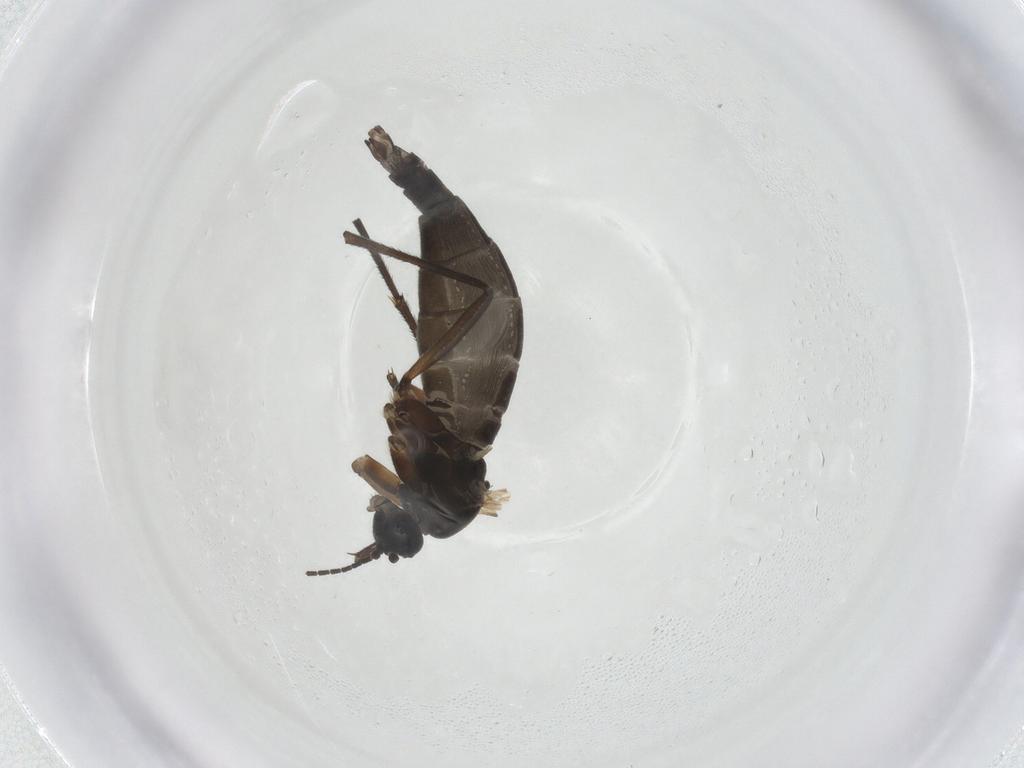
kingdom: Animalia
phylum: Arthropoda
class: Insecta
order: Diptera
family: Sciaridae
